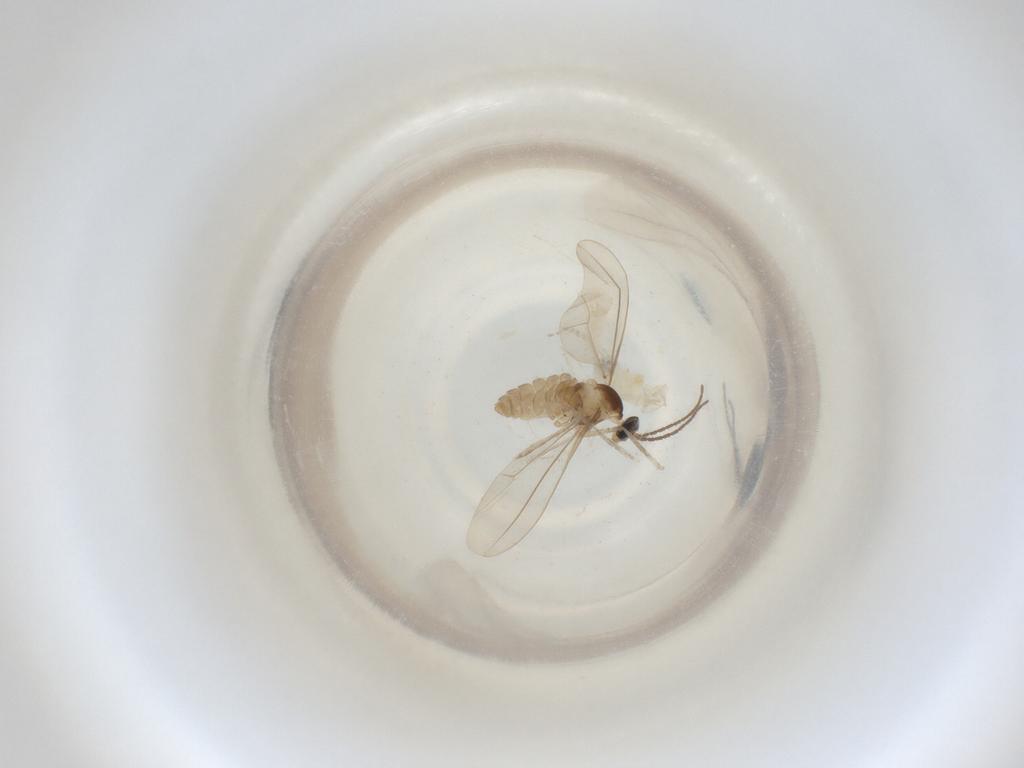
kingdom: Animalia
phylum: Arthropoda
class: Insecta
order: Diptera
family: Cecidomyiidae
